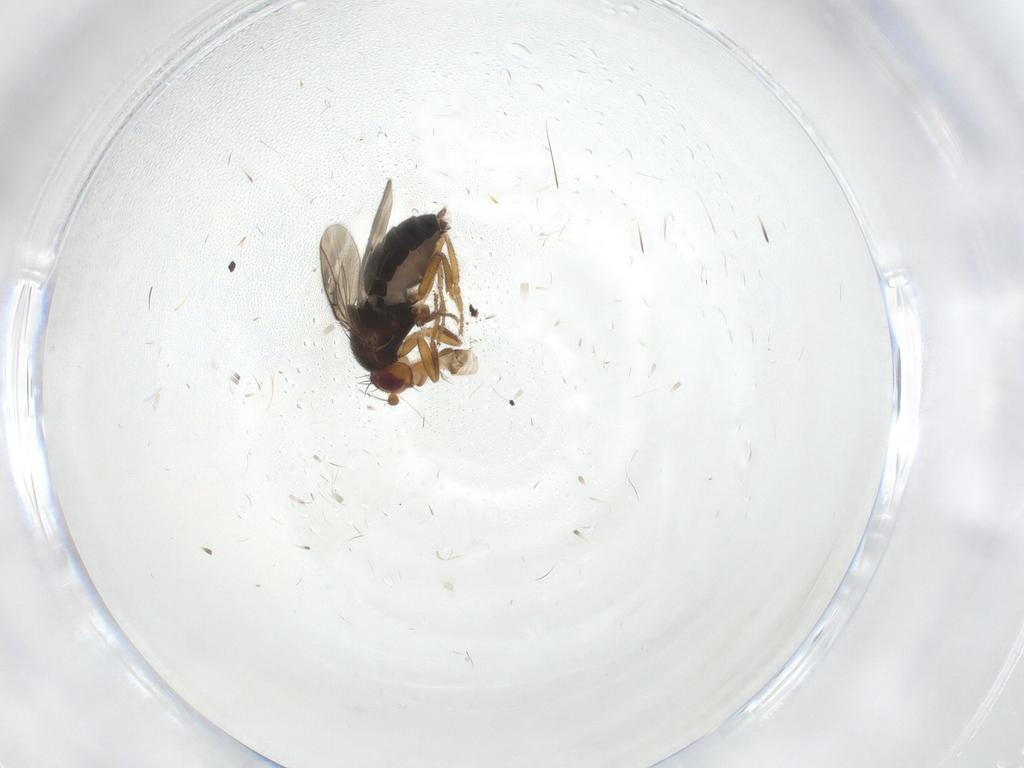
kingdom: Animalia
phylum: Arthropoda
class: Insecta
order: Diptera
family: Sphaeroceridae
